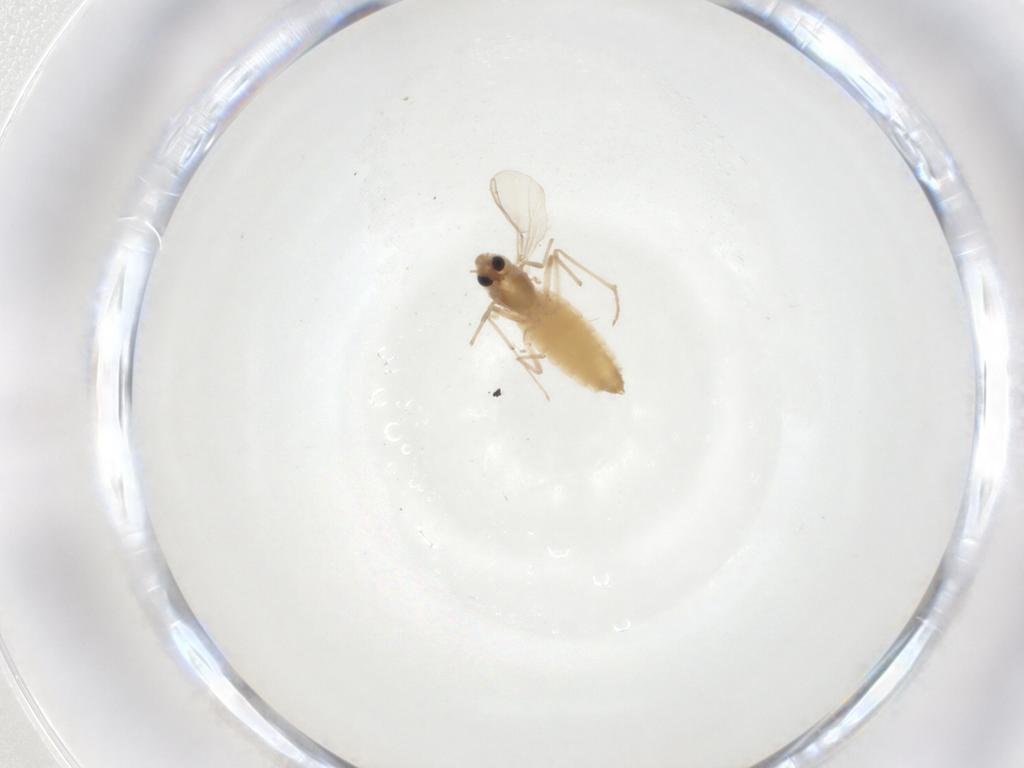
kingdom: Animalia
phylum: Arthropoda
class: Insecta
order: Diptera
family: Chironomidae
